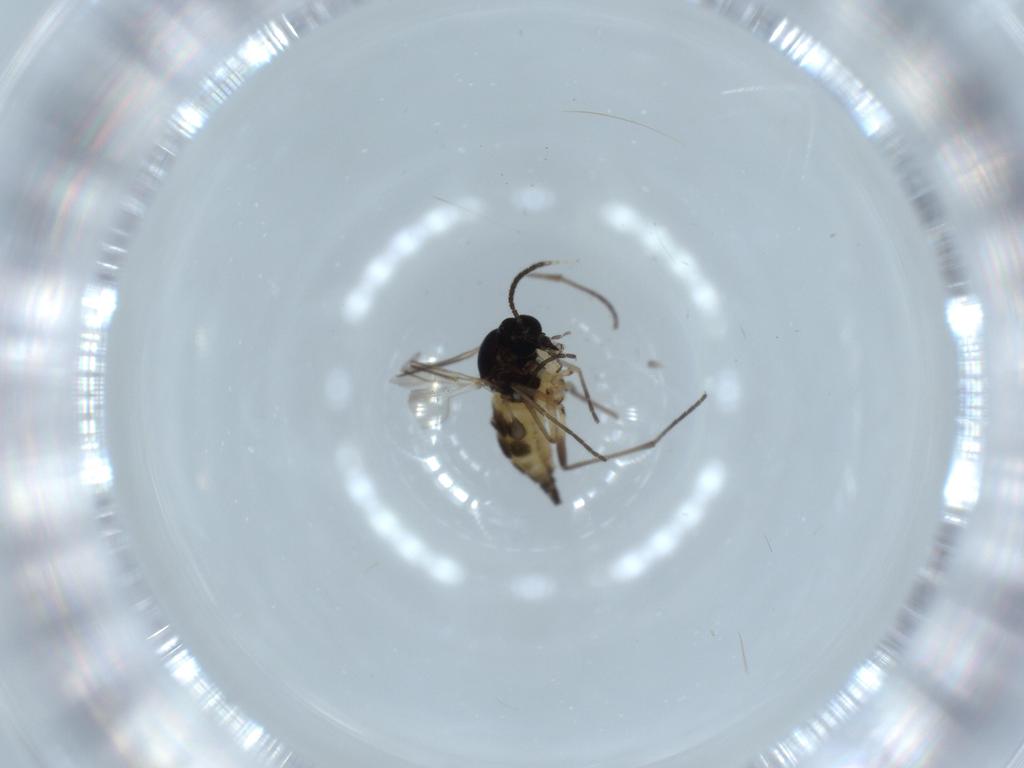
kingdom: Animalia
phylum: Arthropoda
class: Insecta
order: Diptera
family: Sciaridae
